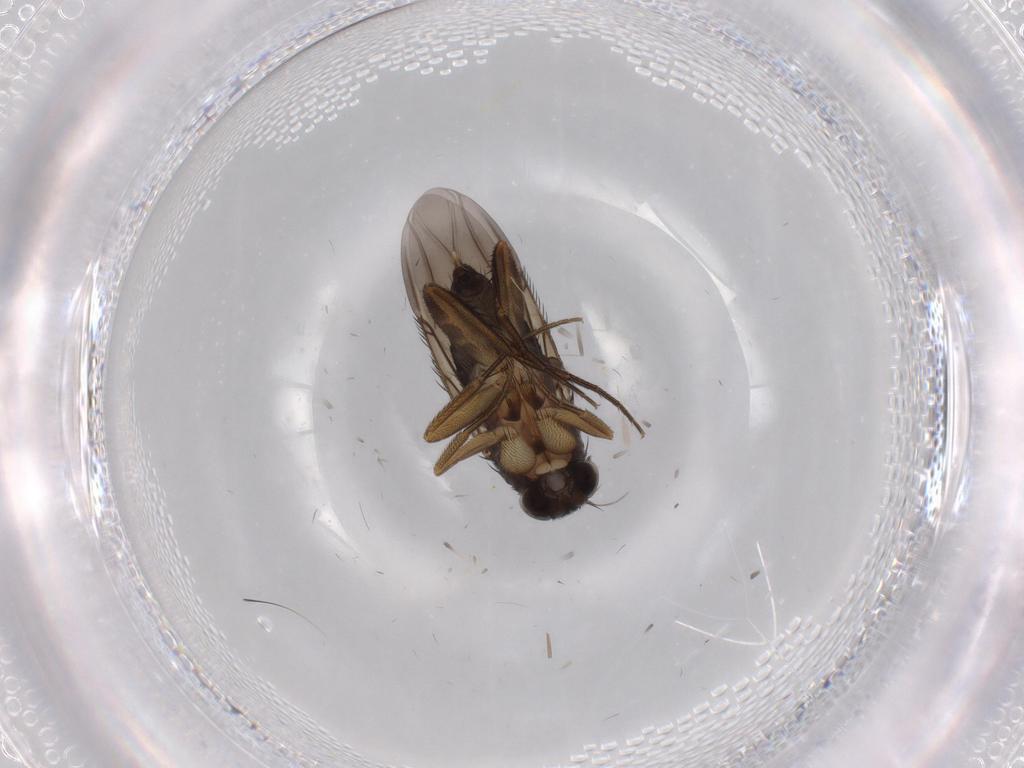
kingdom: Animalia
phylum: Arthropoda
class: Insecta
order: Diptera
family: Phoridae
